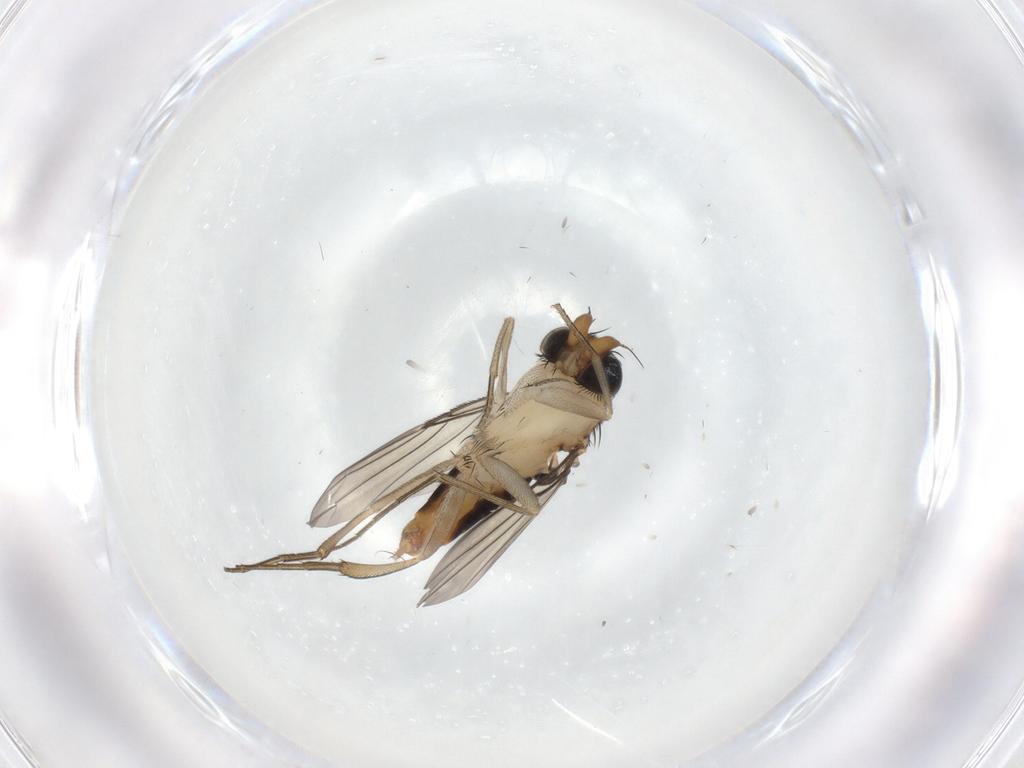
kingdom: Animalia
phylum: Arthropoda
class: Insecta
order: Diptera
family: Phoridae
